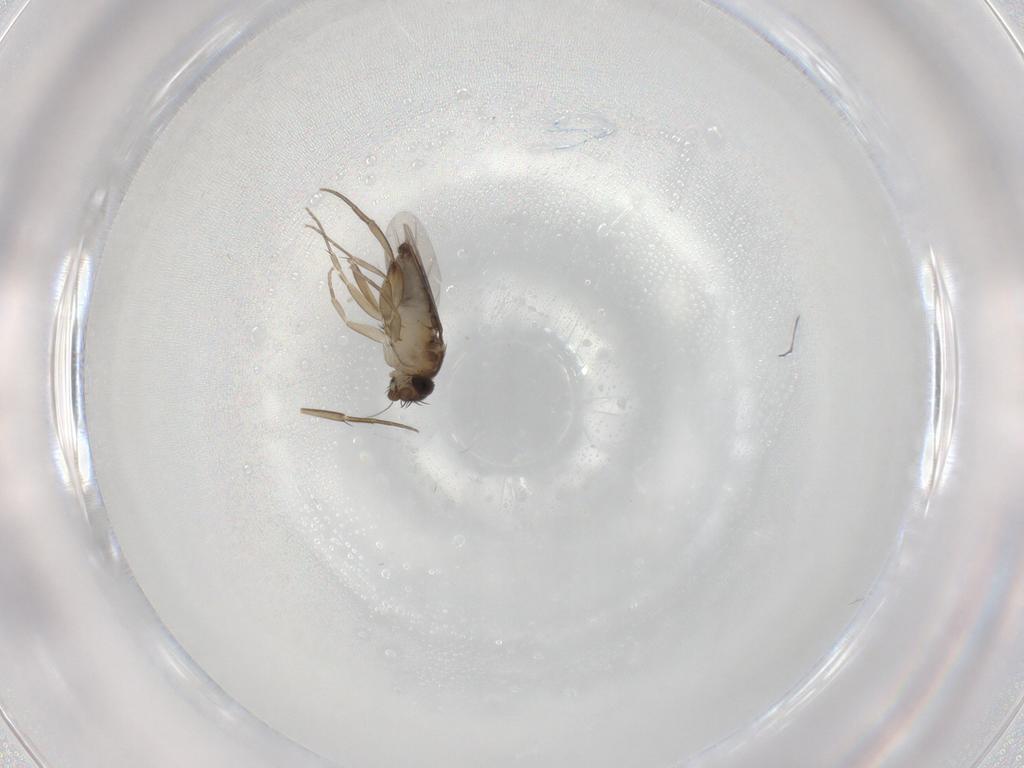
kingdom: Animalia
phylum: Arthropoda
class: Insecta
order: Diptera
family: Phoridae
